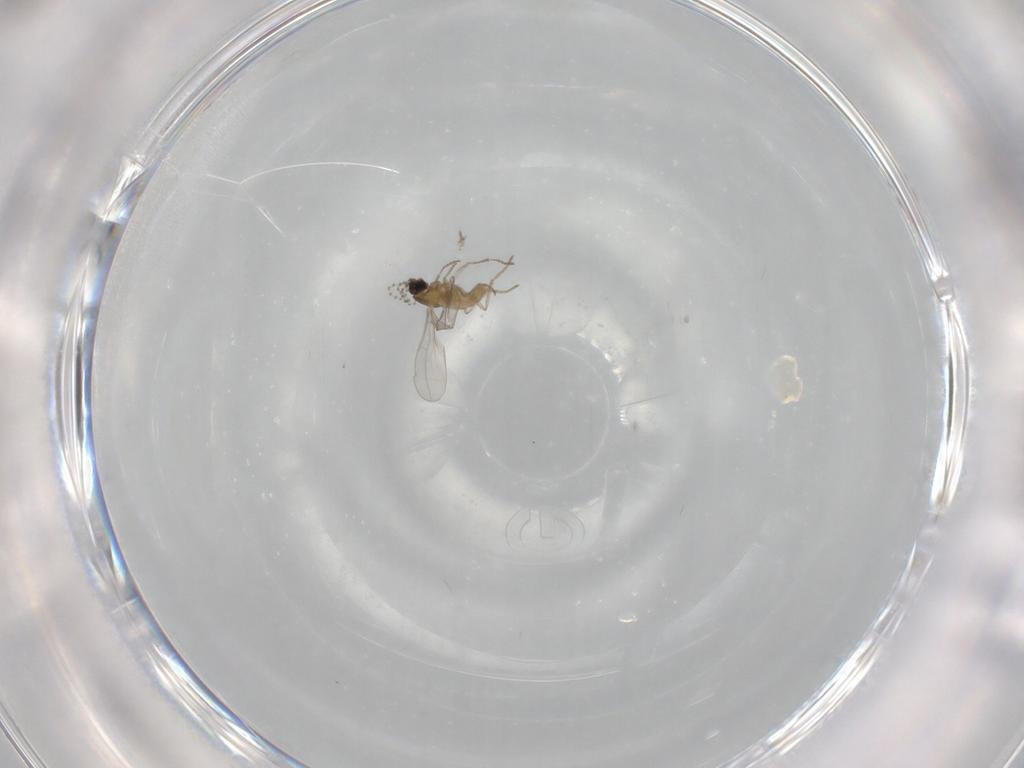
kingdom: Animalia
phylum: Arthropoda
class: Insecta
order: Diptera
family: Cecidomyiidae
